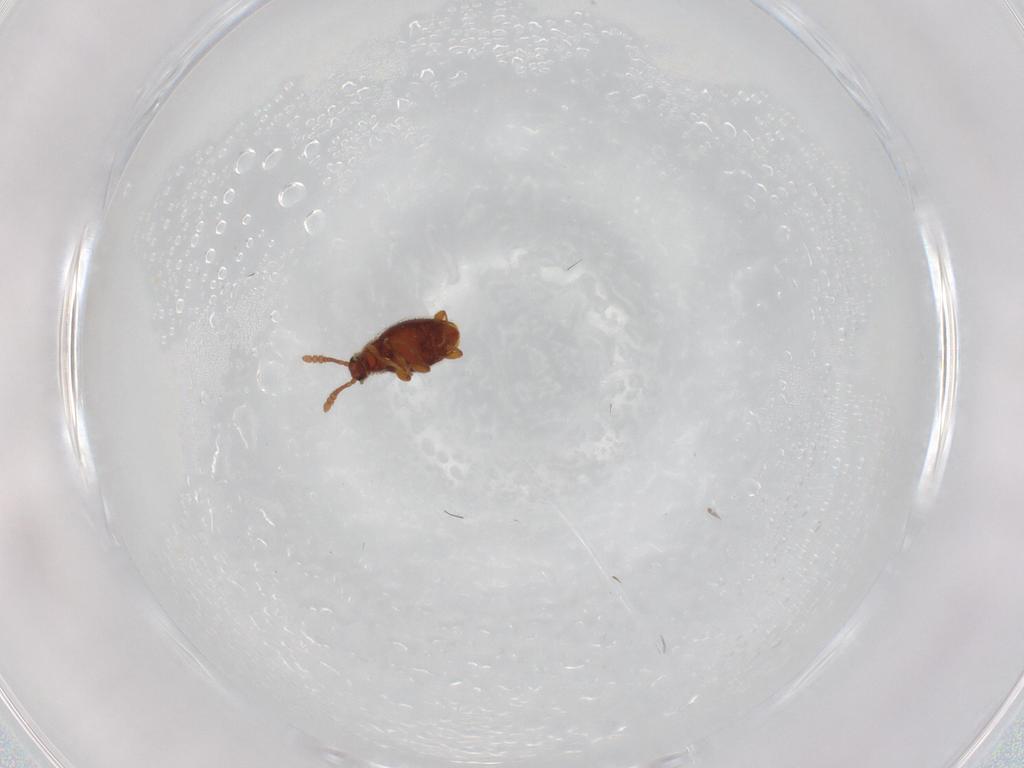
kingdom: Animalia
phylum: Arthropoda
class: Insecta
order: Coleoptera
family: Staphylinidae
